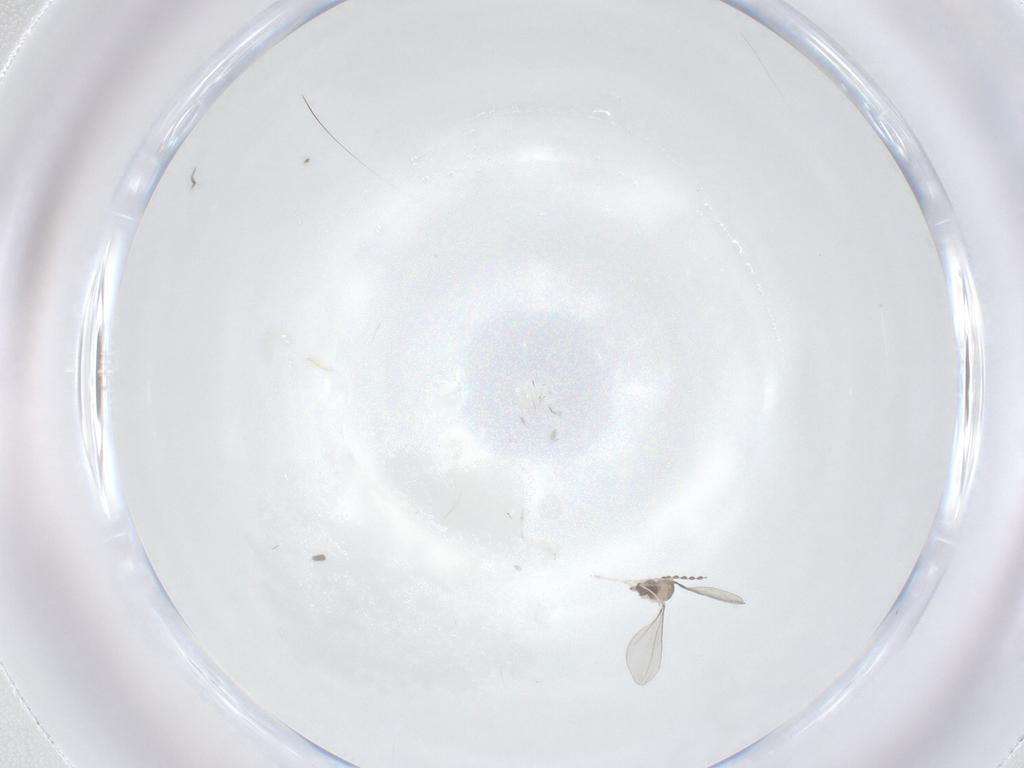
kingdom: Animalia
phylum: Arthropoda
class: Insecta
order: Diptera
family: Cecidomyiidae
